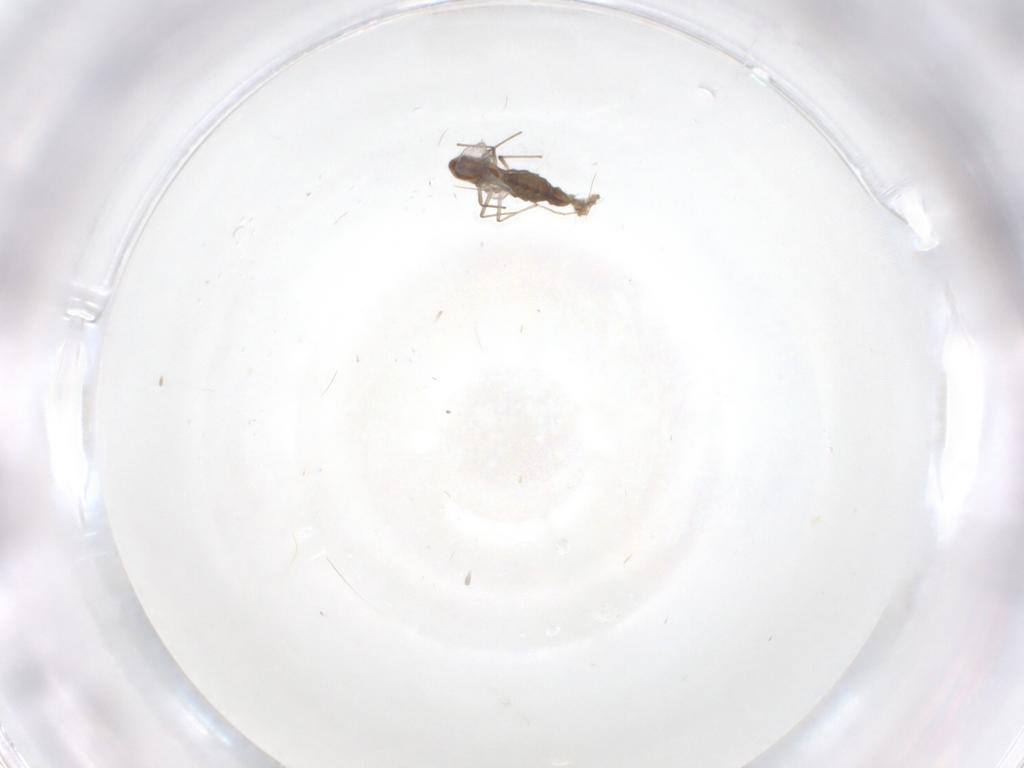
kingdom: Animalia
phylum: Arthropoda
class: Insecta
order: Diptera
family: Chironomidae
